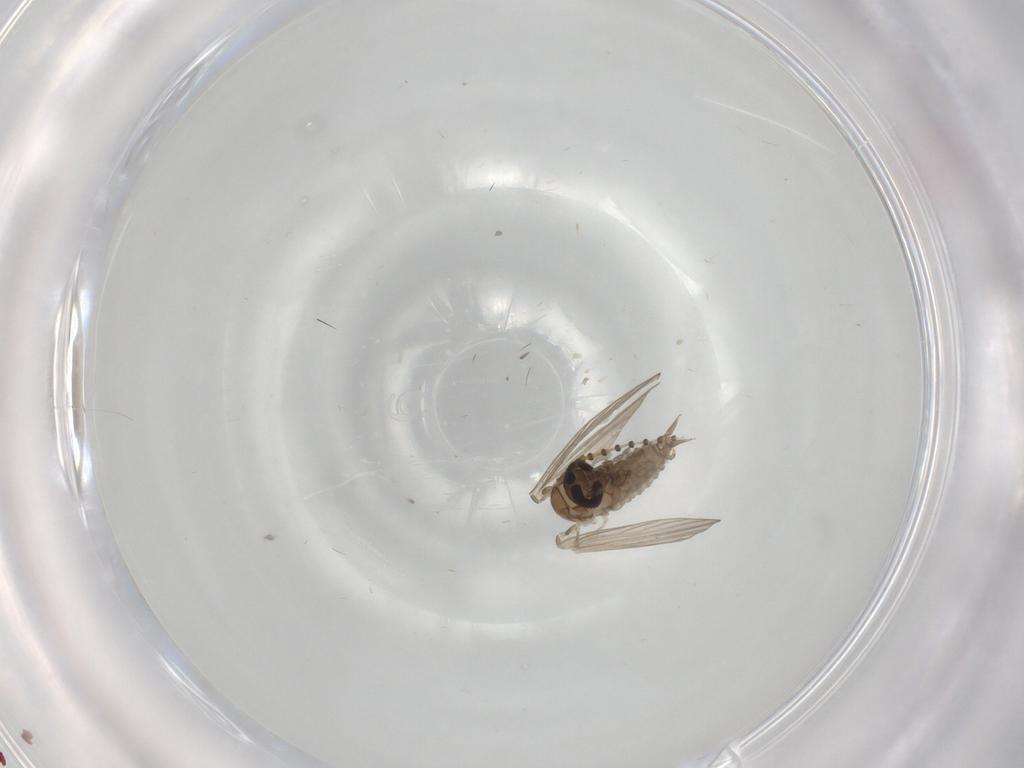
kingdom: Animalia
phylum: Arthropoda
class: Insecta
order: Diptera
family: Psychodidae
